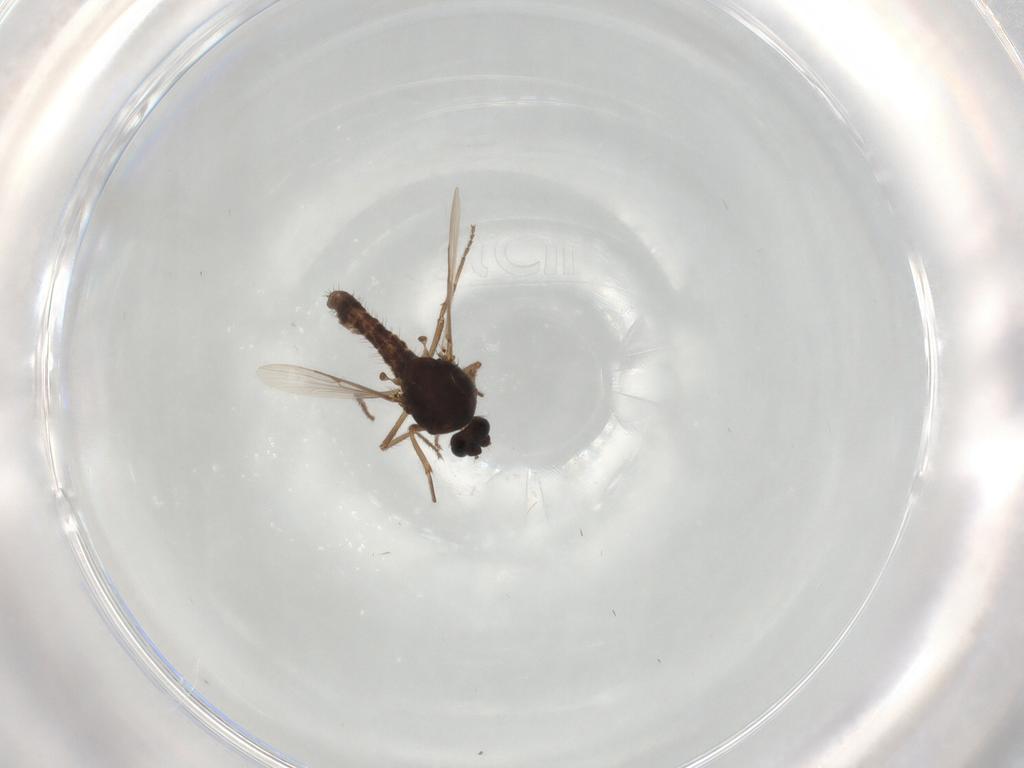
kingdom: Animalia
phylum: Arthropoda
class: Insecta
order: Diptera
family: Ceratopogonidae
